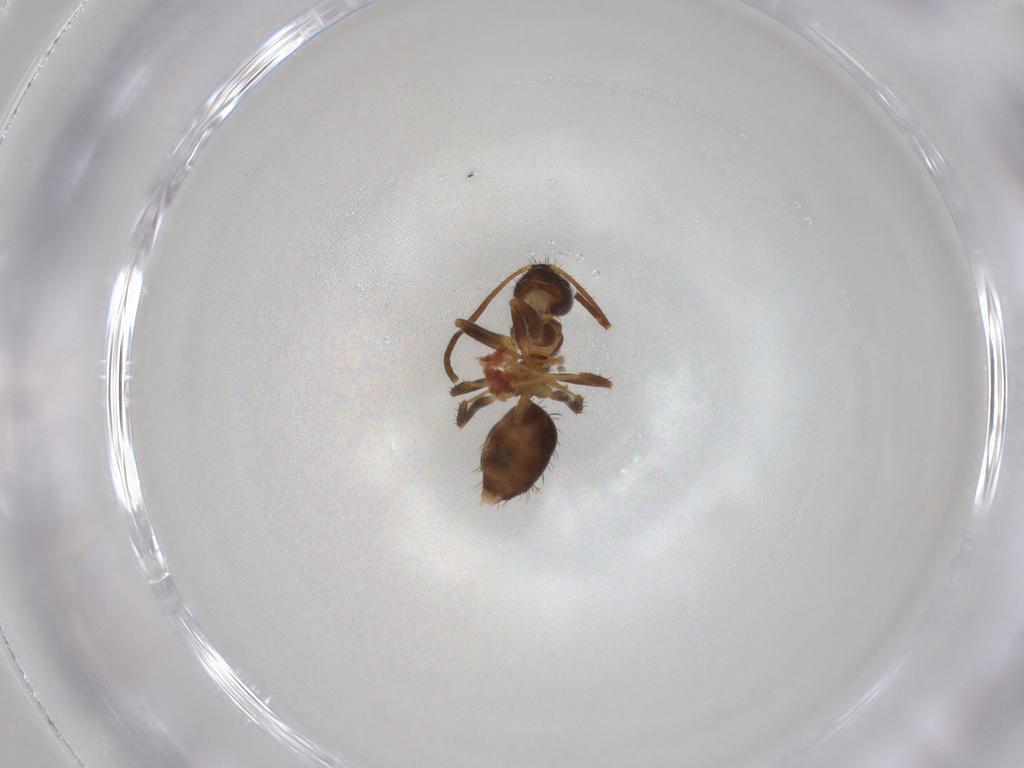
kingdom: Animalia
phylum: Arthropoda
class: Insecta
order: Hymenoptera
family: Formicidae
